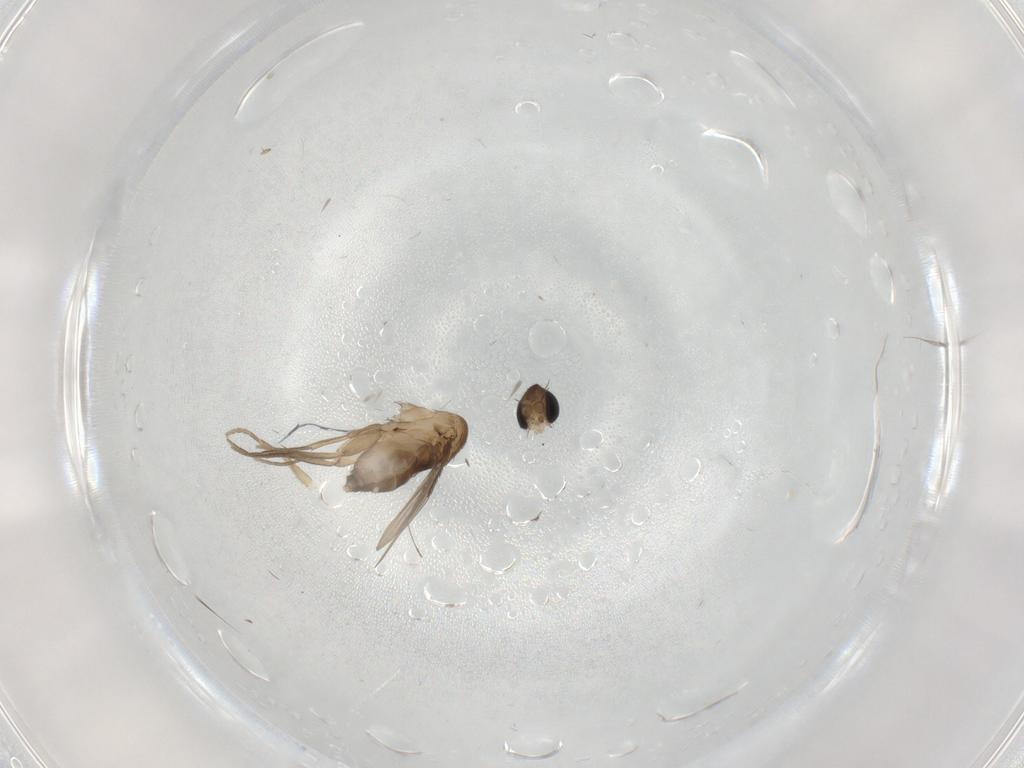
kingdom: Animalia
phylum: Arthropoda
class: Insecta
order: Diptera
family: Phoridae
